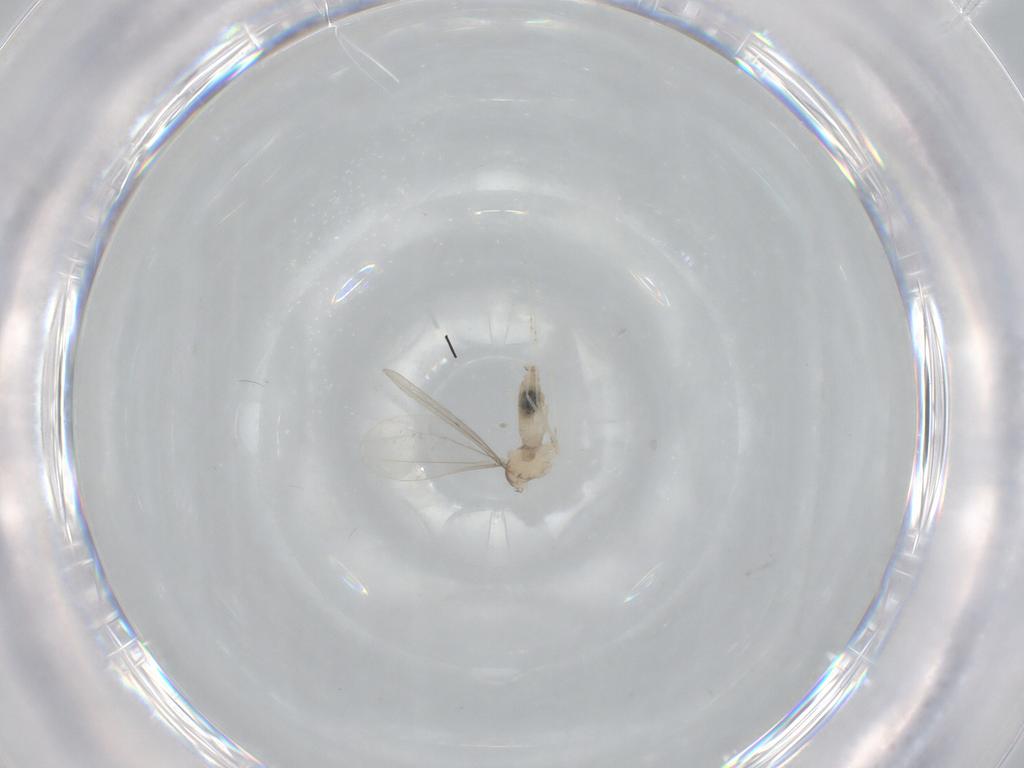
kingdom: Animalia
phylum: Arthropoda
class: Insecta
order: Diptera
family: Cecidomyiidae
